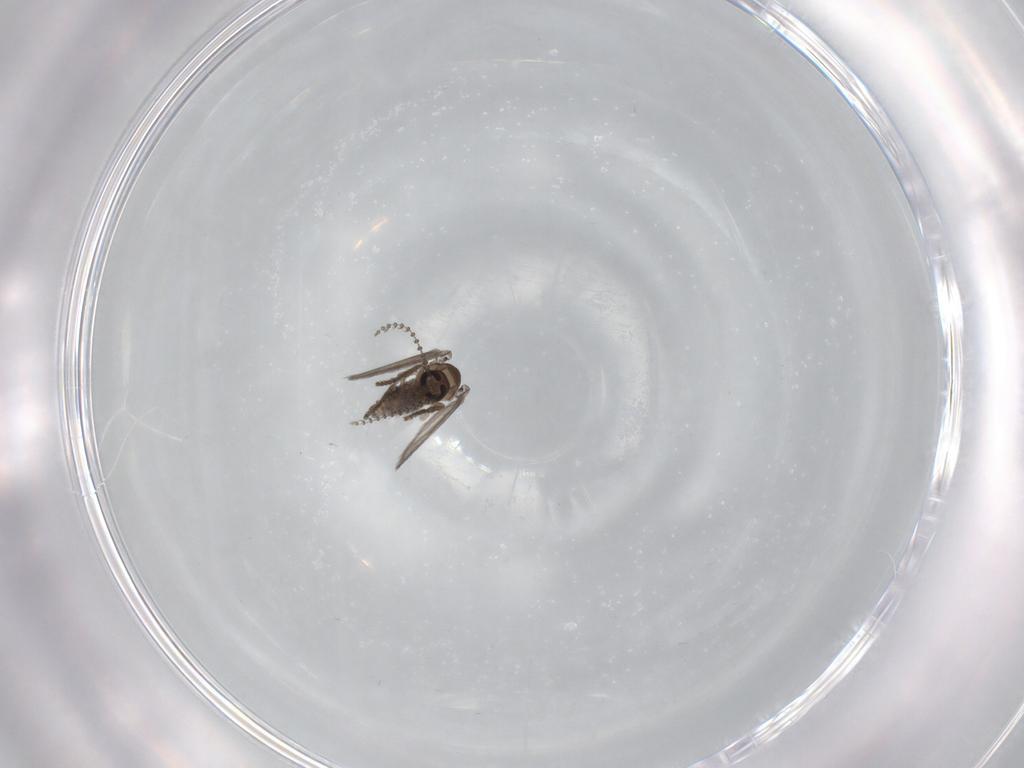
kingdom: Animalia
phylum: Arthropoda
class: Insecta
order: Diptera
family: Psychodidae
